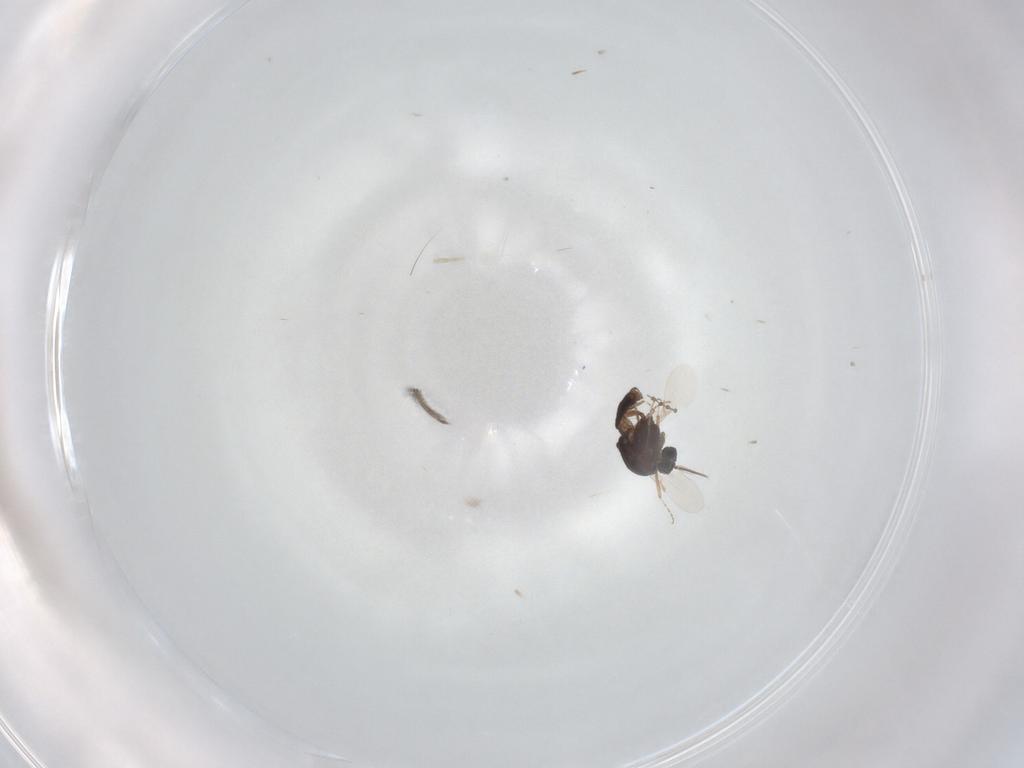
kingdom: Animalia
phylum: Arthropoda
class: Insecta
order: Diptera
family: Ceratopogonidae
